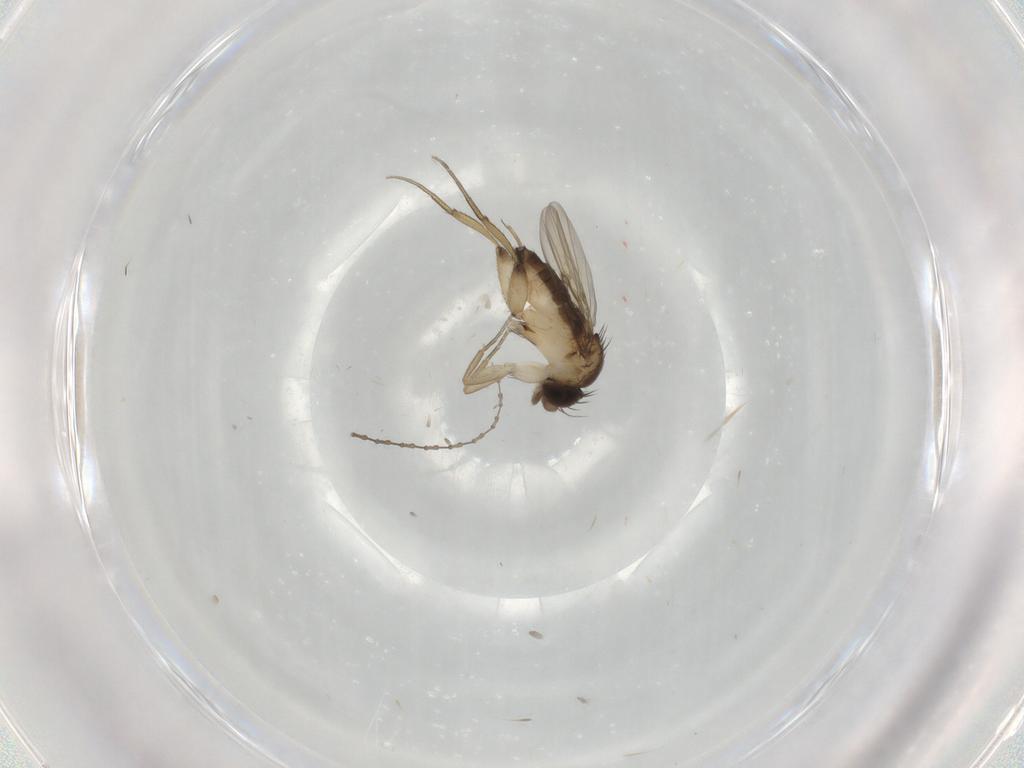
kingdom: Animalia
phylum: Arthropoda
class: Insecta
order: Diptera
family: Phoridae
